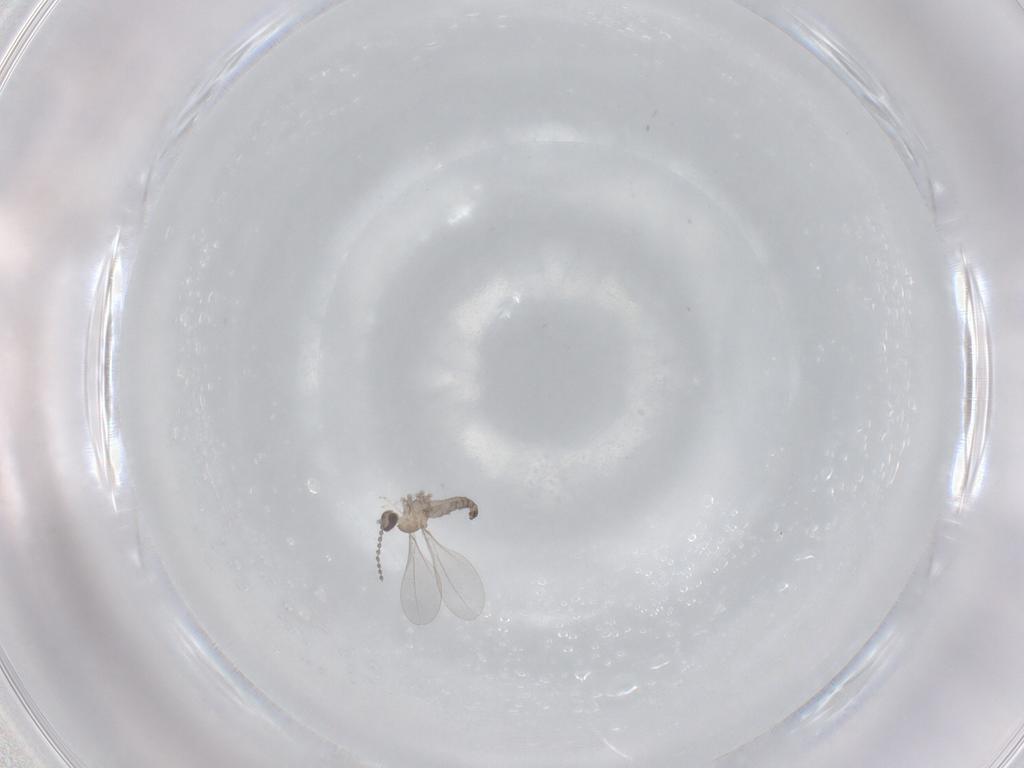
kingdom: Animalia
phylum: Arthropoda
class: Insecta
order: Diptera
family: Cecidomyiidae
